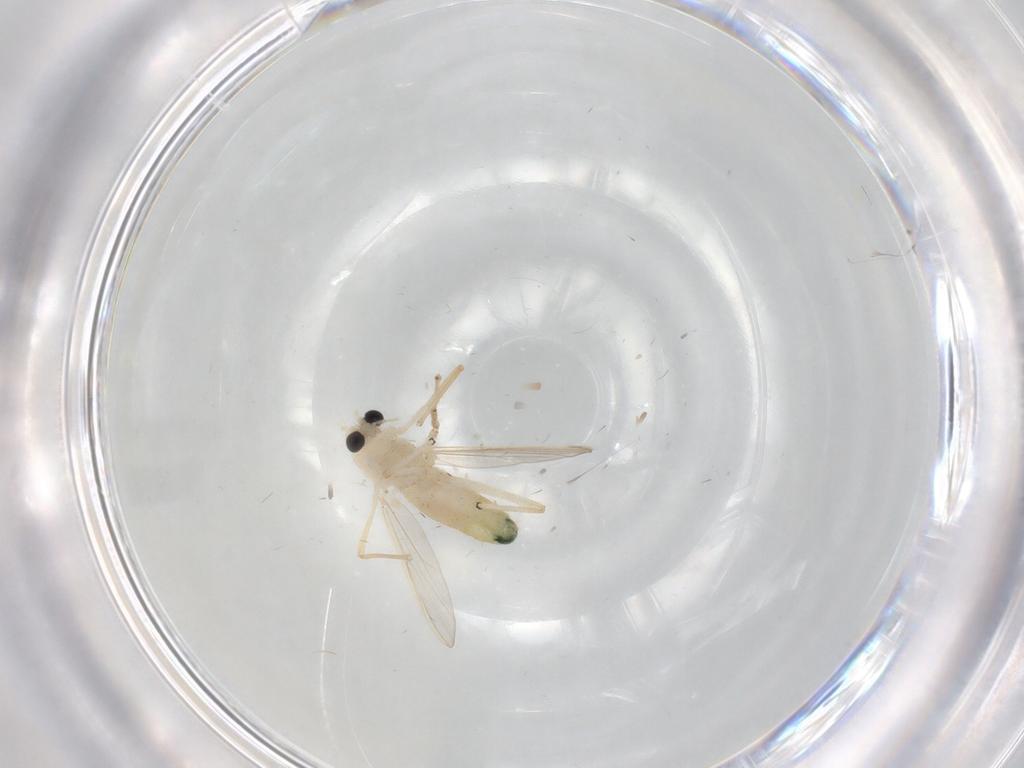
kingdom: Animalia
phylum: Arthropoda
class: Insecta
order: Diptera
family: Chironomidae
